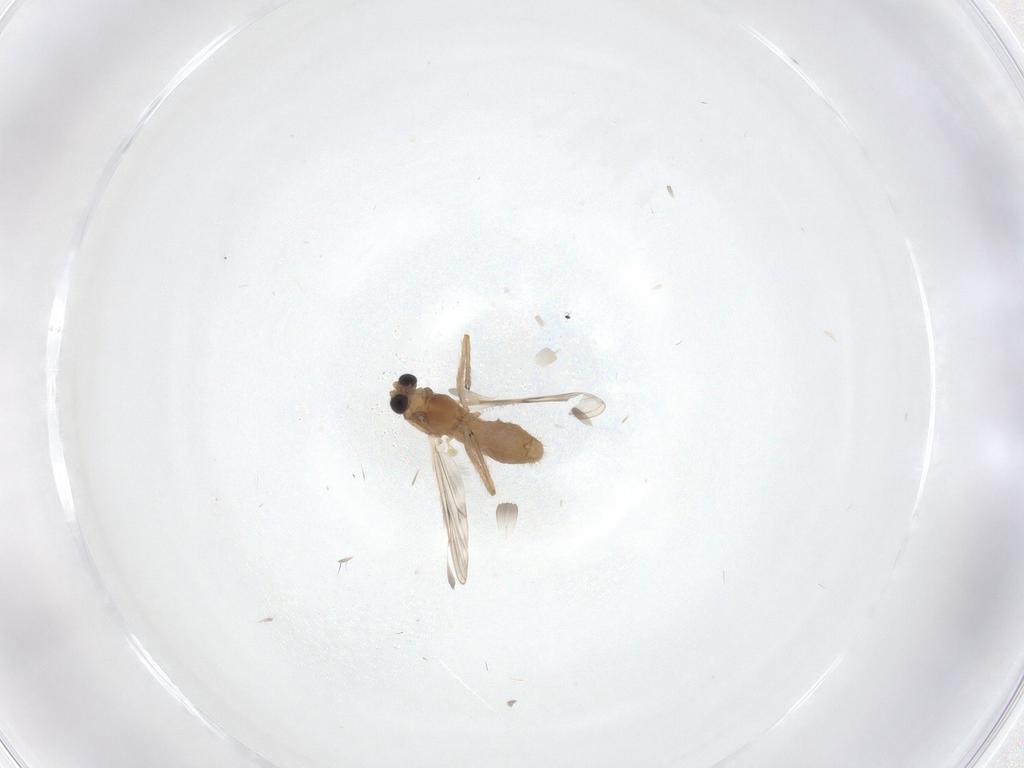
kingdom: Animalia
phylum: Arthropoda
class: Insecta
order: Diptera
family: Chironomidae
